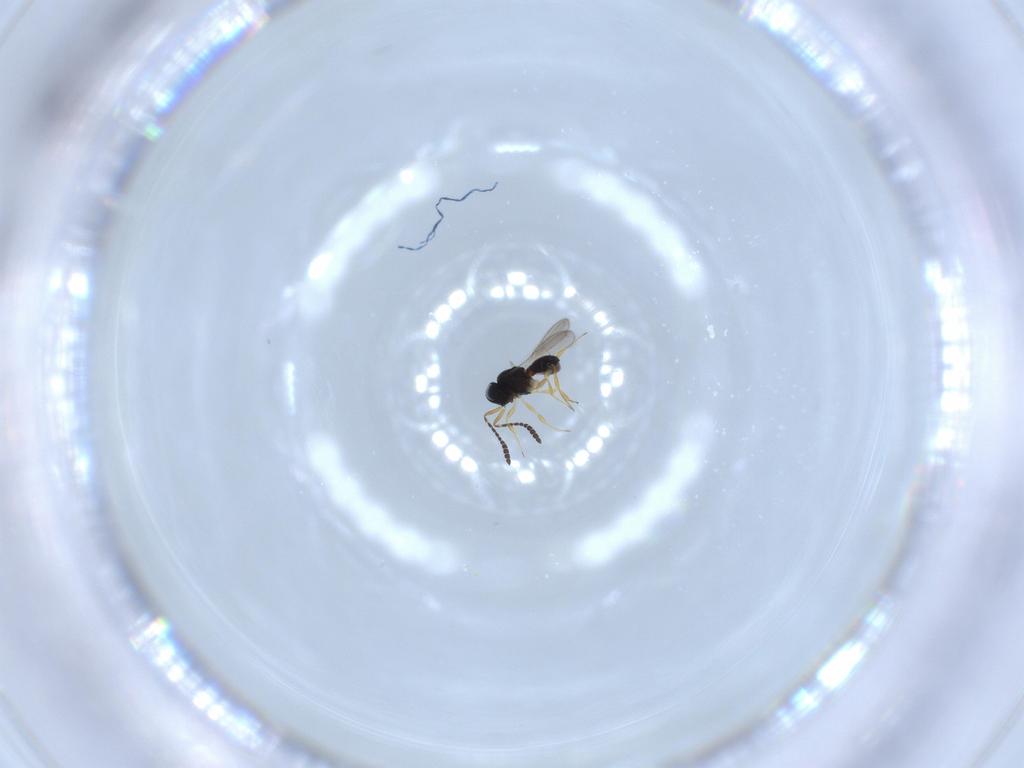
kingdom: Animalia
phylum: Arthropoda
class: Insecta
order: Hymenoptera
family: Scelionidae
